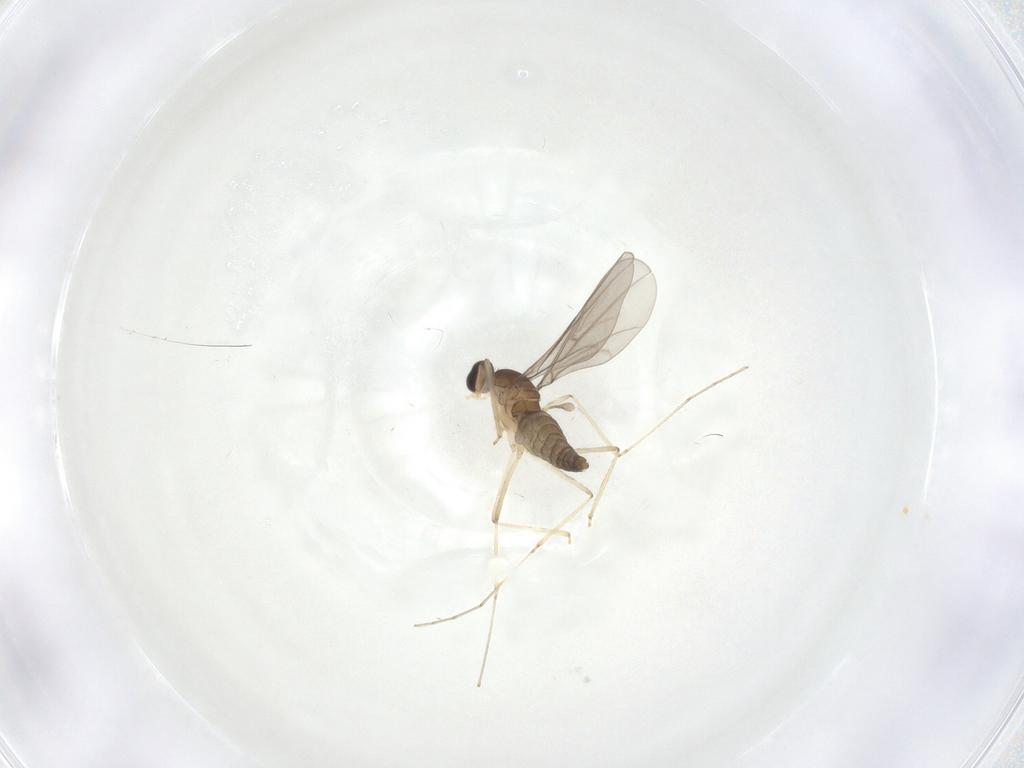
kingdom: Animalia
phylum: Arthropoda
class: Insecta
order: Diptera
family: Cecidomyiidae
